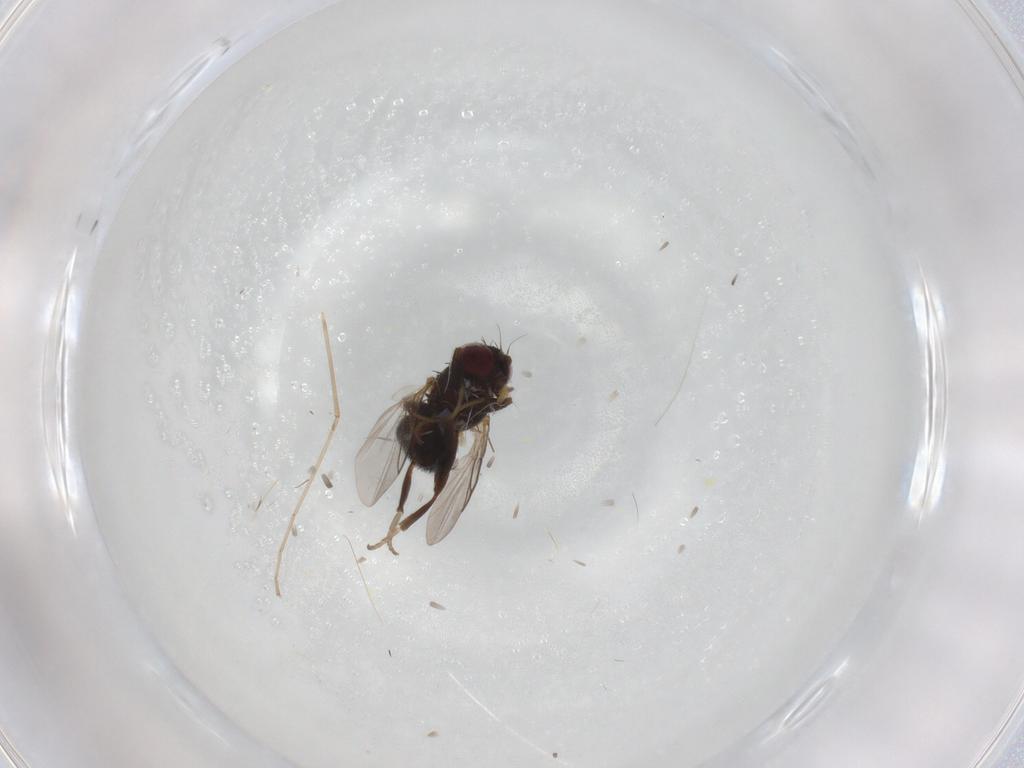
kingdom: Animalia
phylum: Arthropoda
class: Insecta
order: Diptera
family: Agromyzidae
